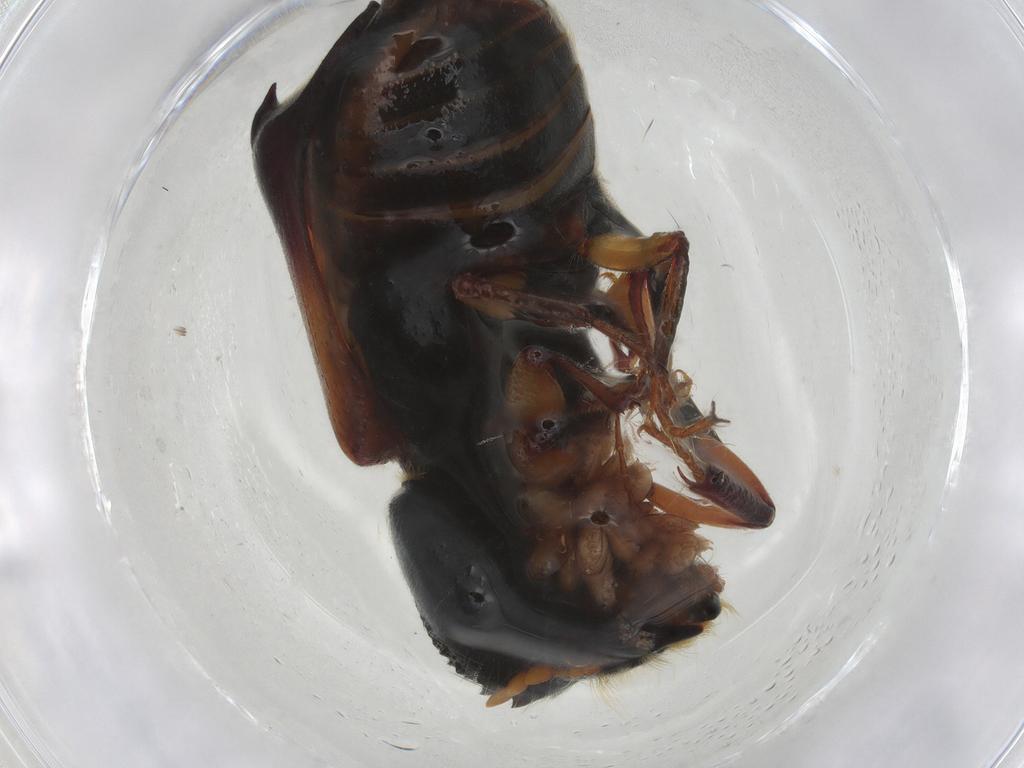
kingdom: Animalia
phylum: Arthropoda
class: Insecta
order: Coleoptera
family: Bostrichidae
